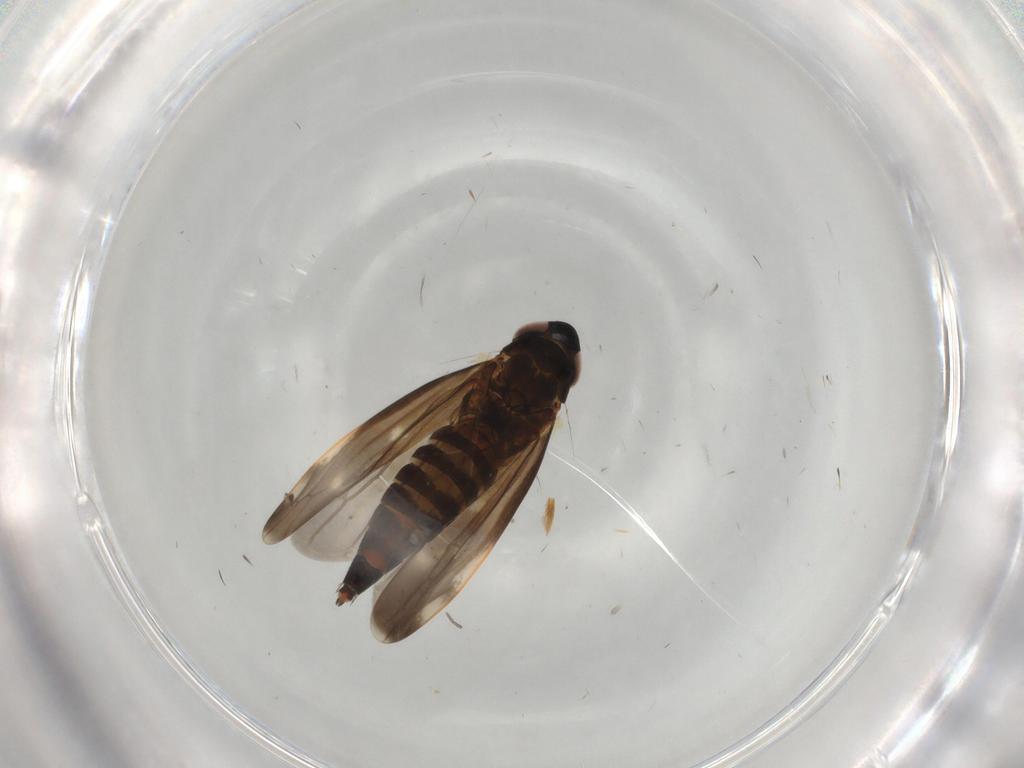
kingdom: Animalia
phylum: Arthropoda
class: Insecta
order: Hemiptera
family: Cicadellidae
